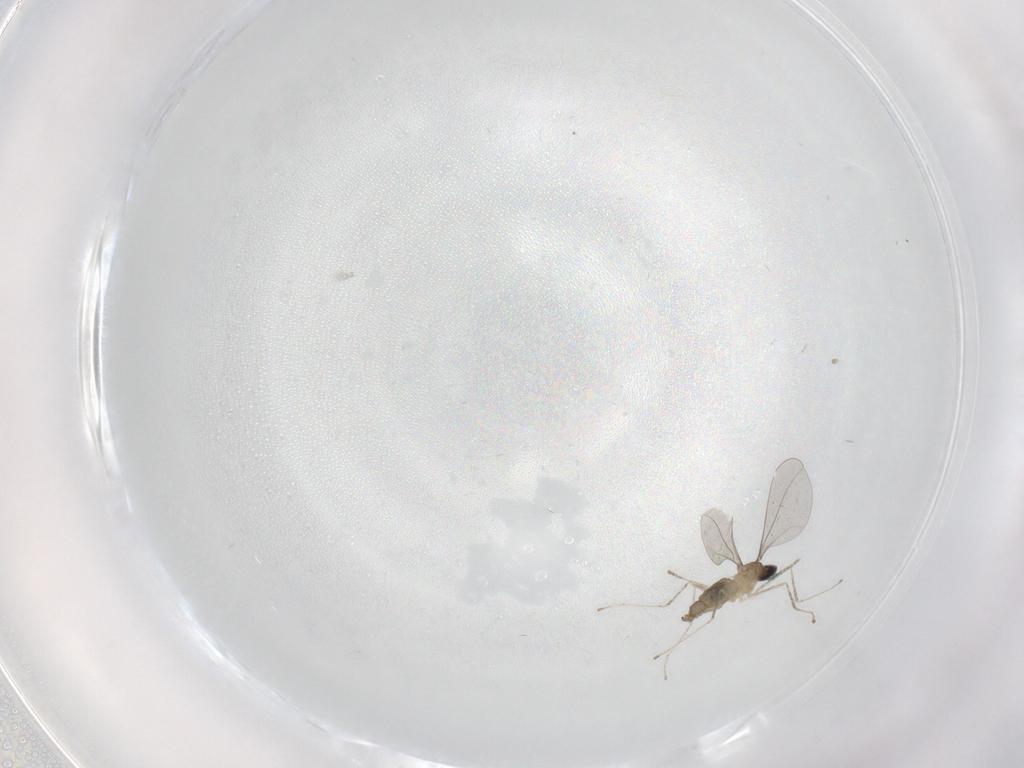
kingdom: Animalia
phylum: Arthropoda
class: Insecta
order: Diptera
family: Cecidomyiidae
